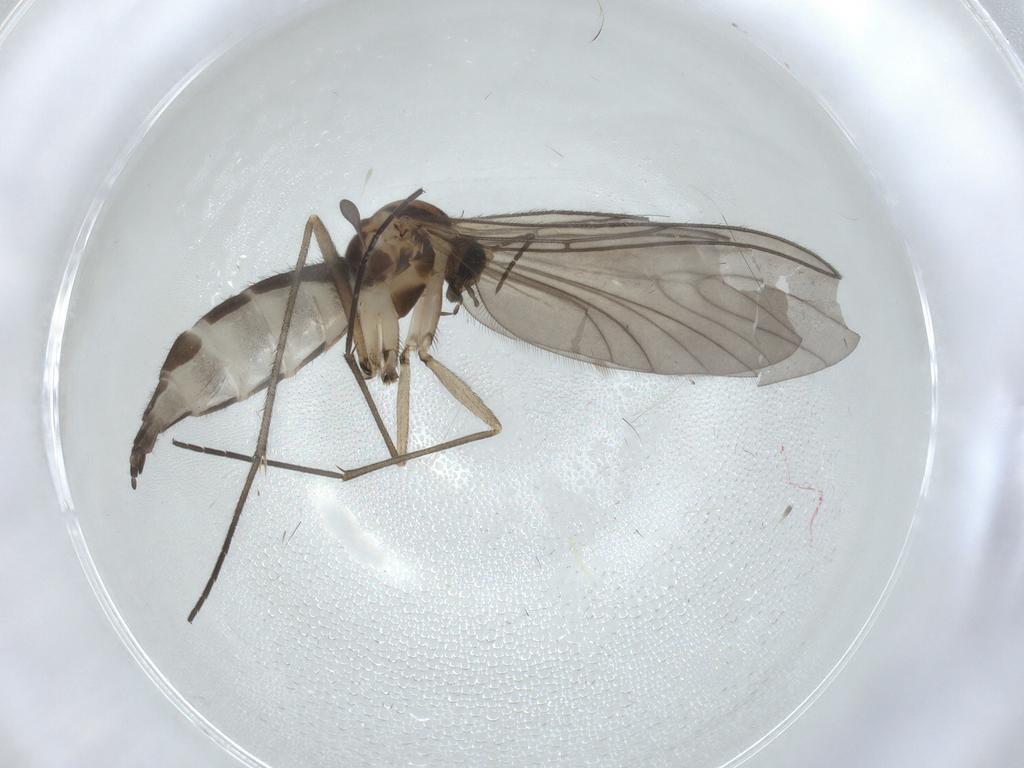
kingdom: Animalia
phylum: Arthropoda
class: Insecta
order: Diptera
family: Sciaridae
